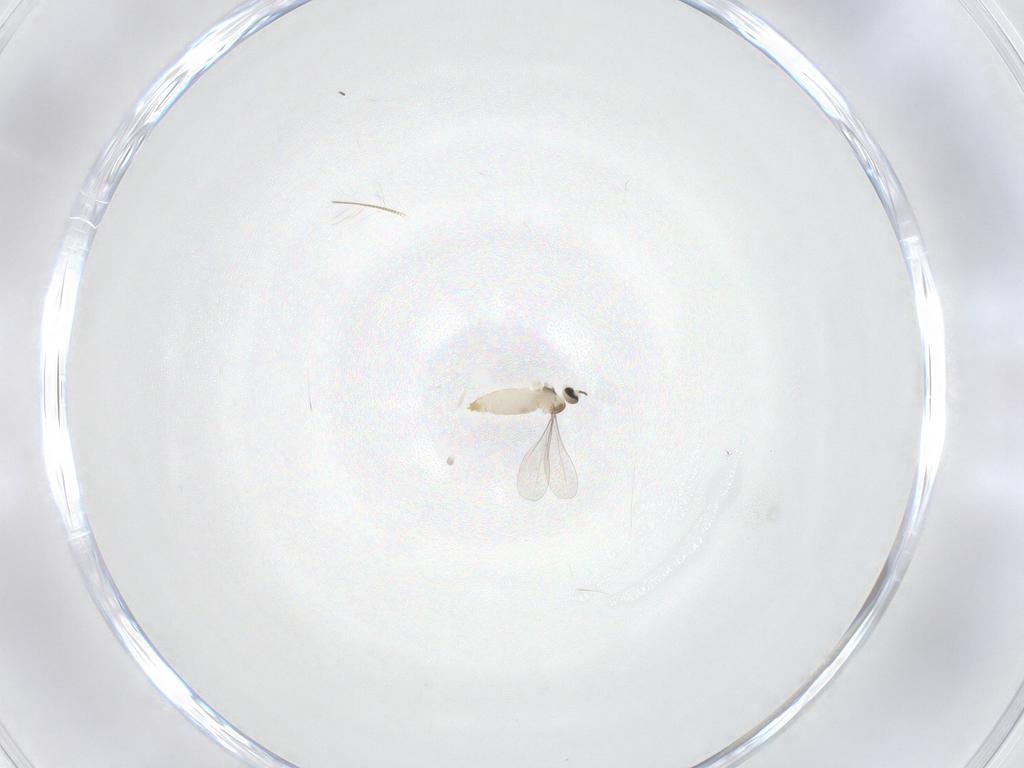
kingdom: Animalia
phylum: Arthropoda
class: Insecta
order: Diptera
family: Cecidomyiidae
